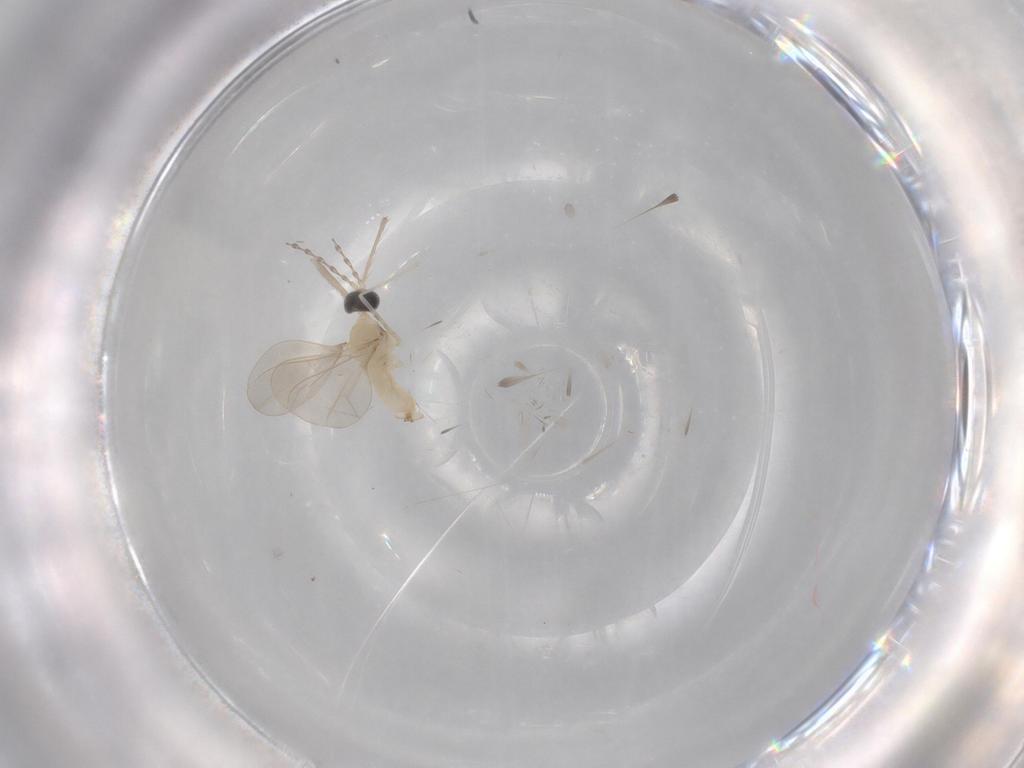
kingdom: Animalia
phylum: Arthropoda
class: Insecta
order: Diptera
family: Cecidomyiidae
